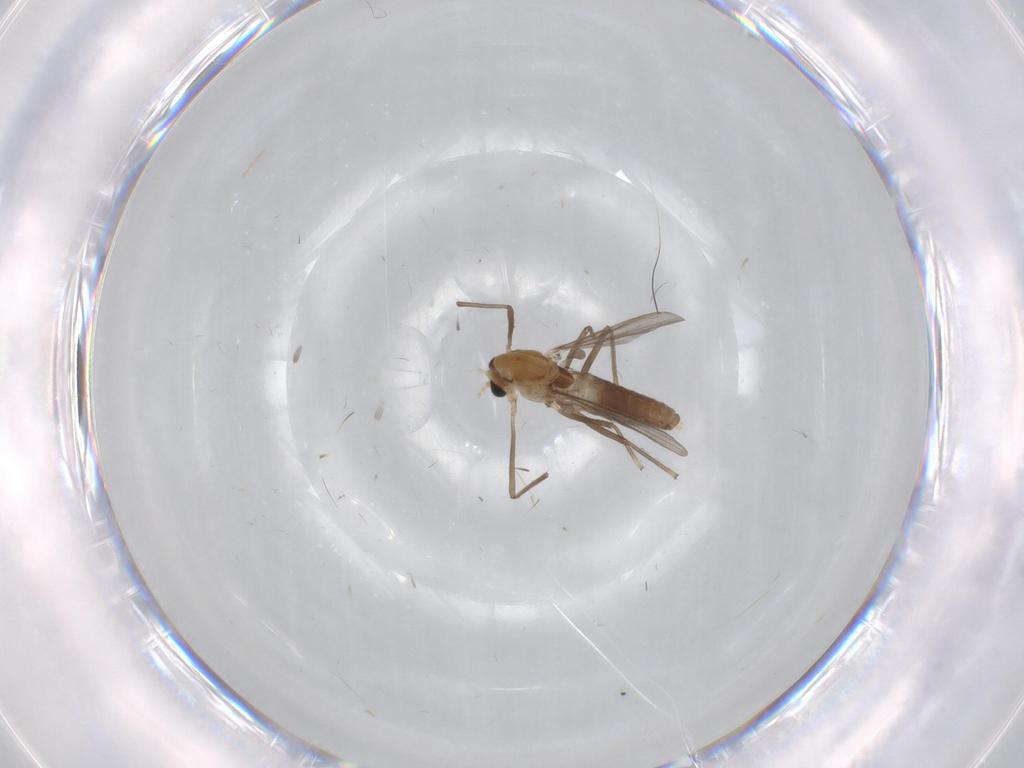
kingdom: Animalia
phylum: Arthropoda
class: Insecta
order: Diptera
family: Chironomidae
